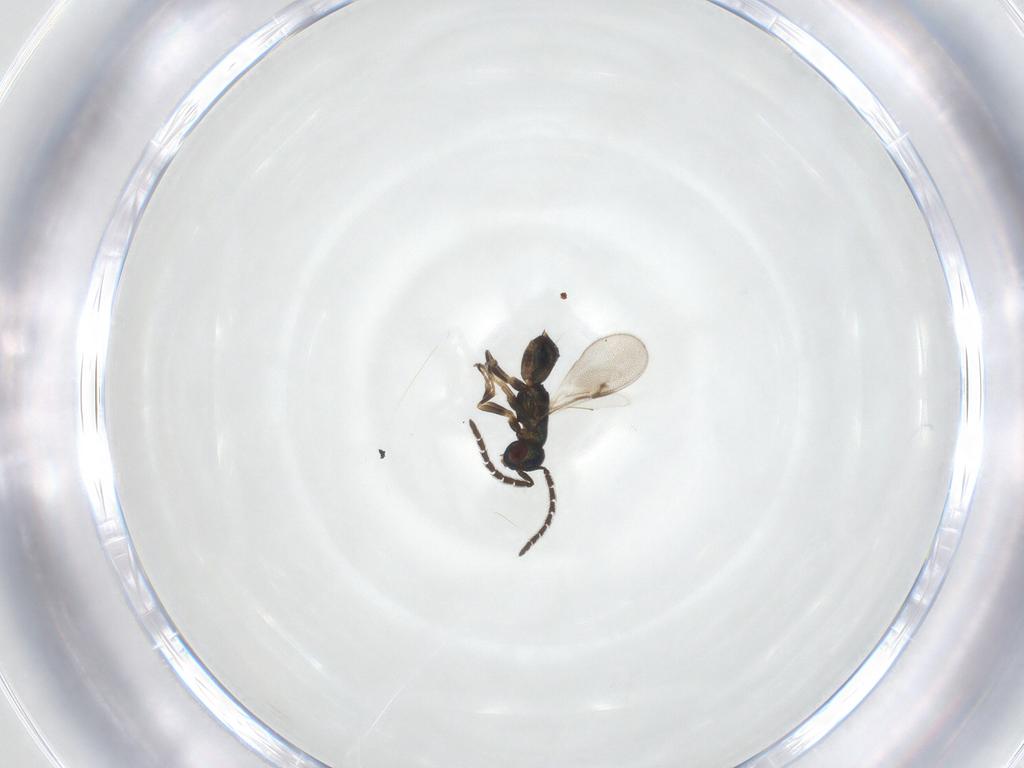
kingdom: Animalia
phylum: Arthropoda
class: Insecta
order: Hymenoptera
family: Encyrtidae
